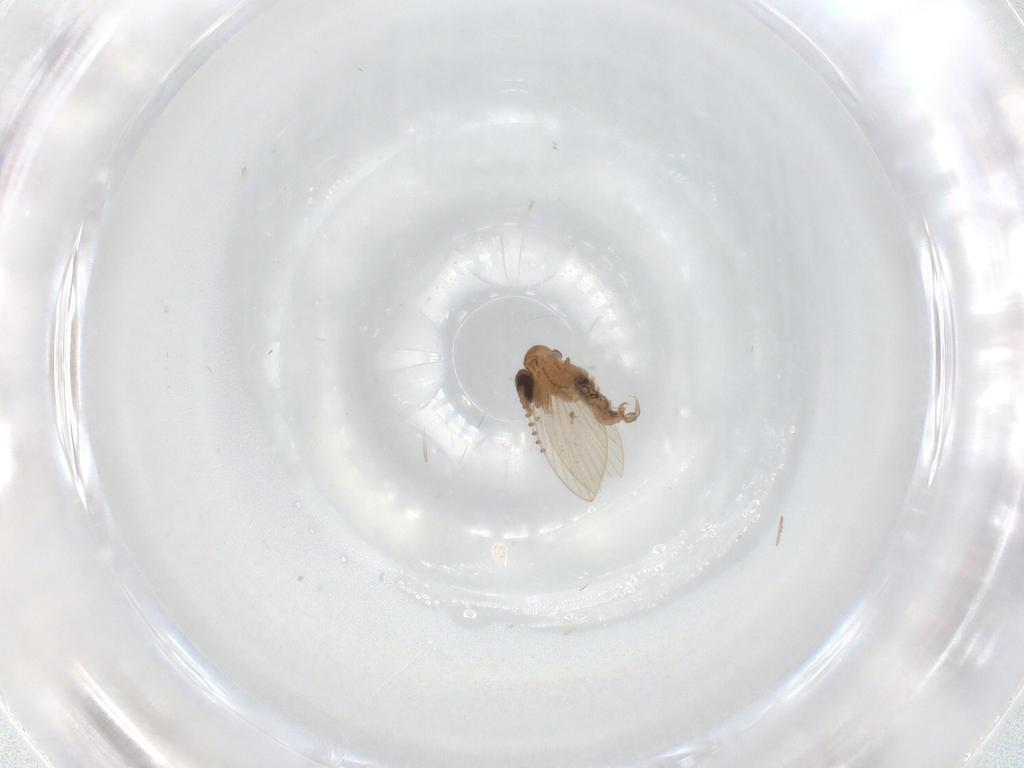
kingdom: Animalia
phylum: Arthropoda
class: Insecta
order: Diptera
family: Psychodidae
